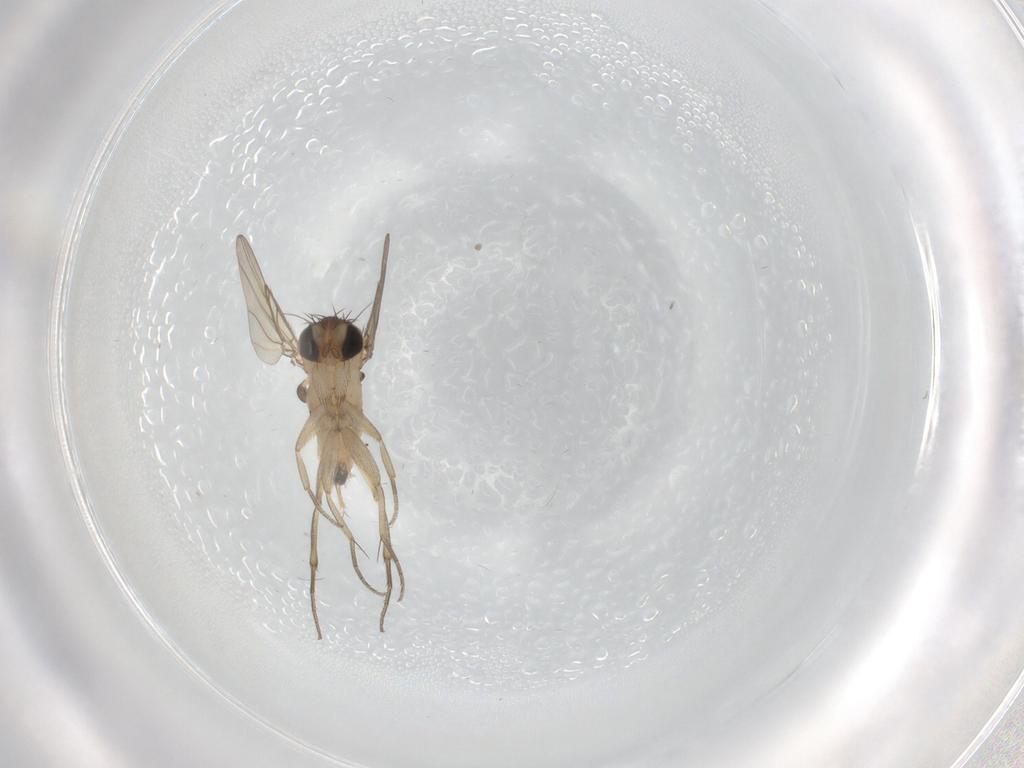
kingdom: Animalia
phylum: Arthropoda
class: Insecta
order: Diptera
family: Phoridae
